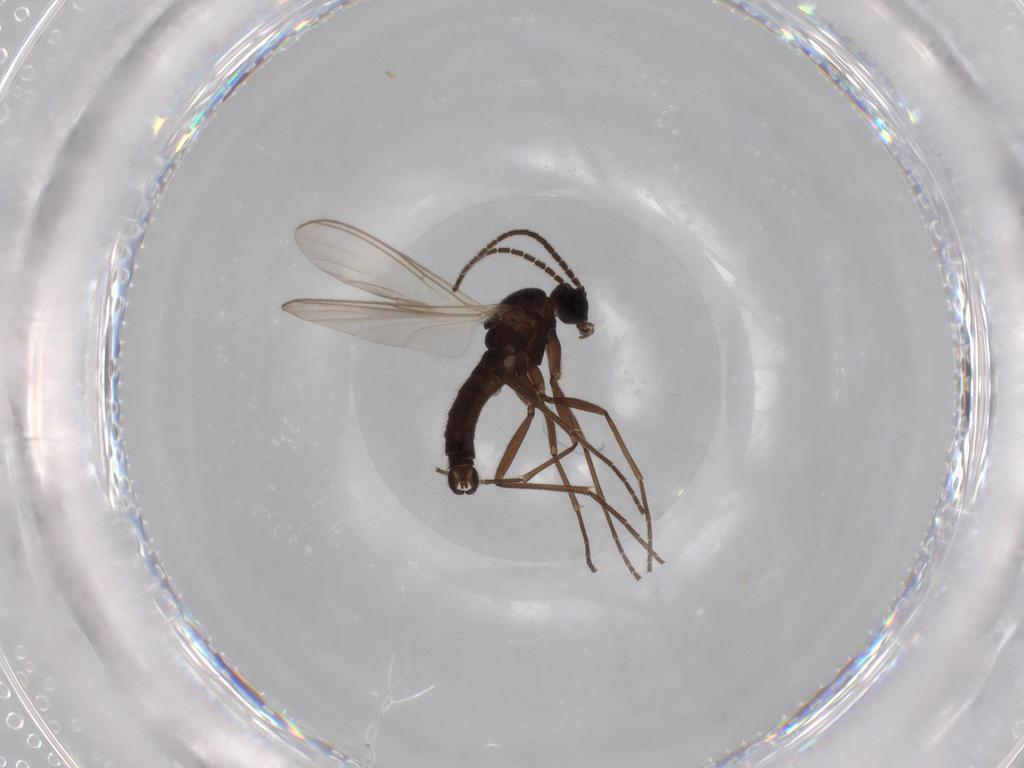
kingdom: Animalia
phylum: Arthropoda
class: Insecta
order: Diptera
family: Sciaridae
